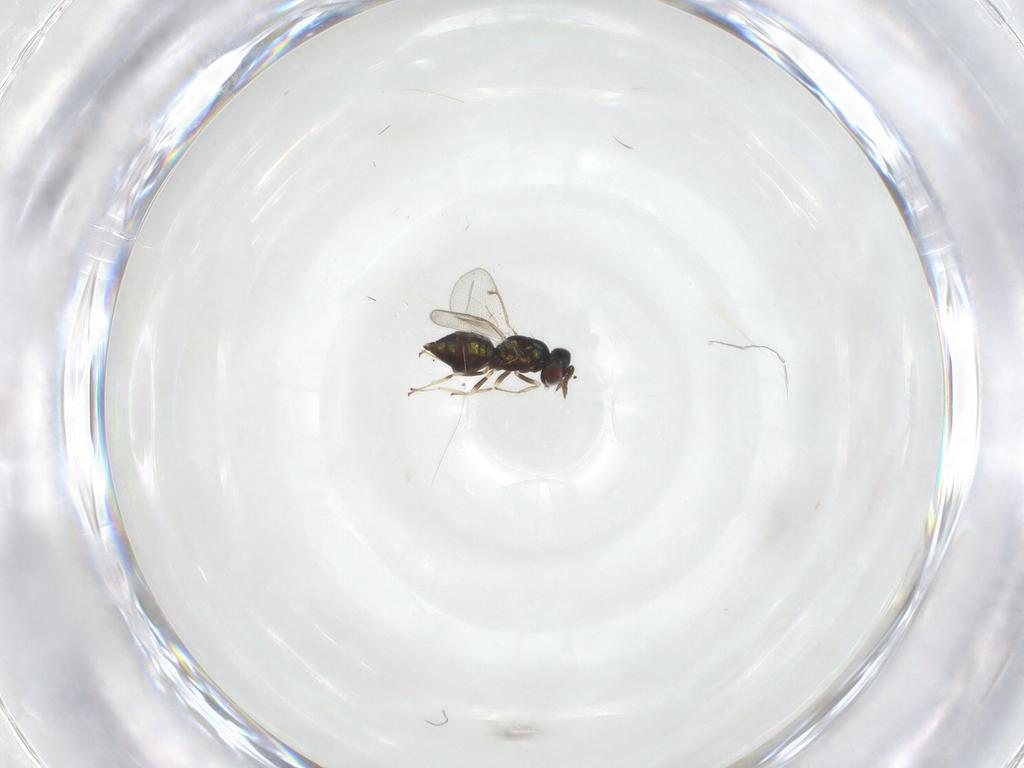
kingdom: Animalia
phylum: Arthropoda
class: Insecta
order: Hymenoptera
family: Eulophidae
